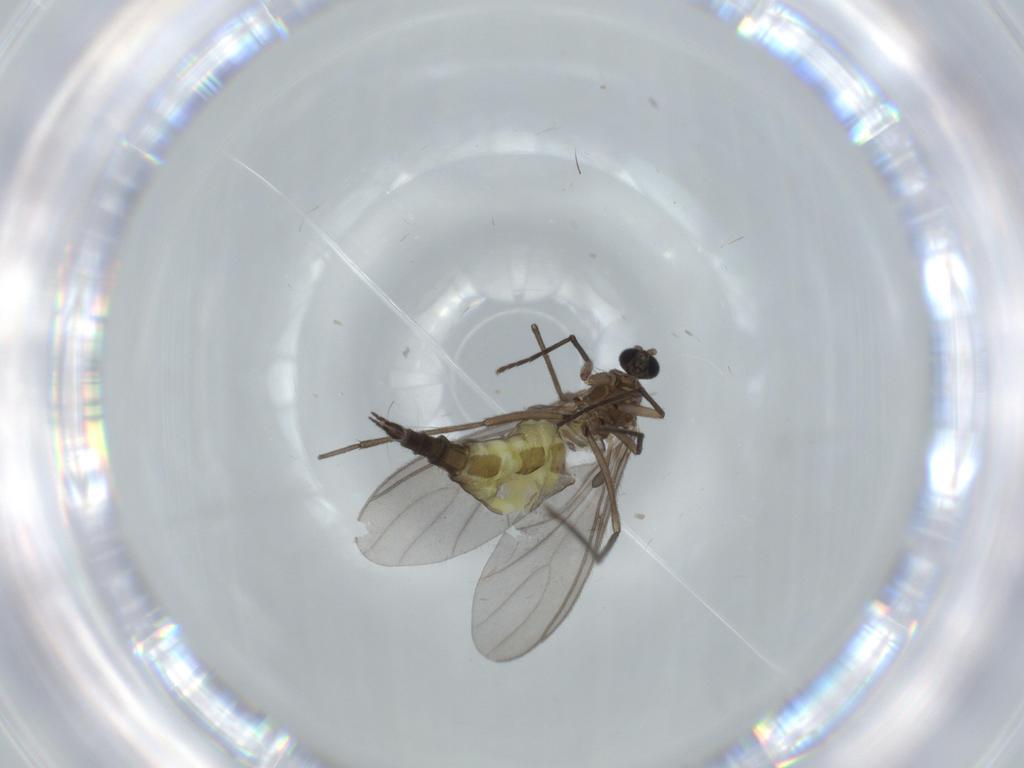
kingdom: Animalia
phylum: Arthropoda
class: Insecta
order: Diptera
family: Sciaridae
